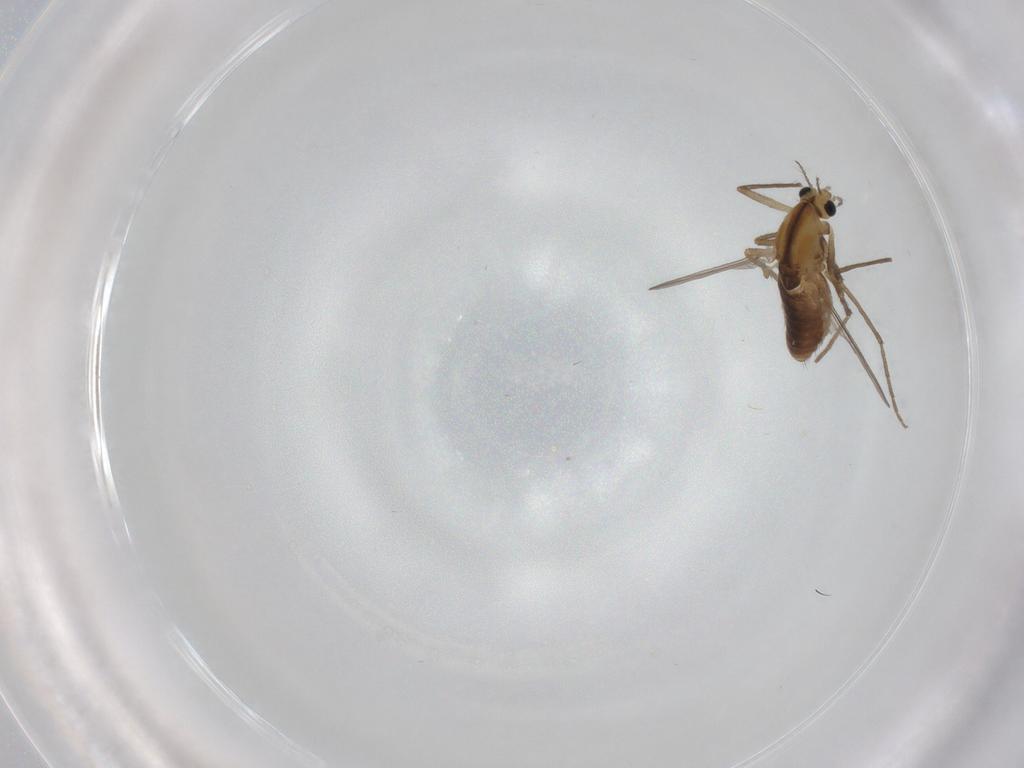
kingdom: Animalia
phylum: Arthropoda
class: Insecta
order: Diptera
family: Chironomidae
